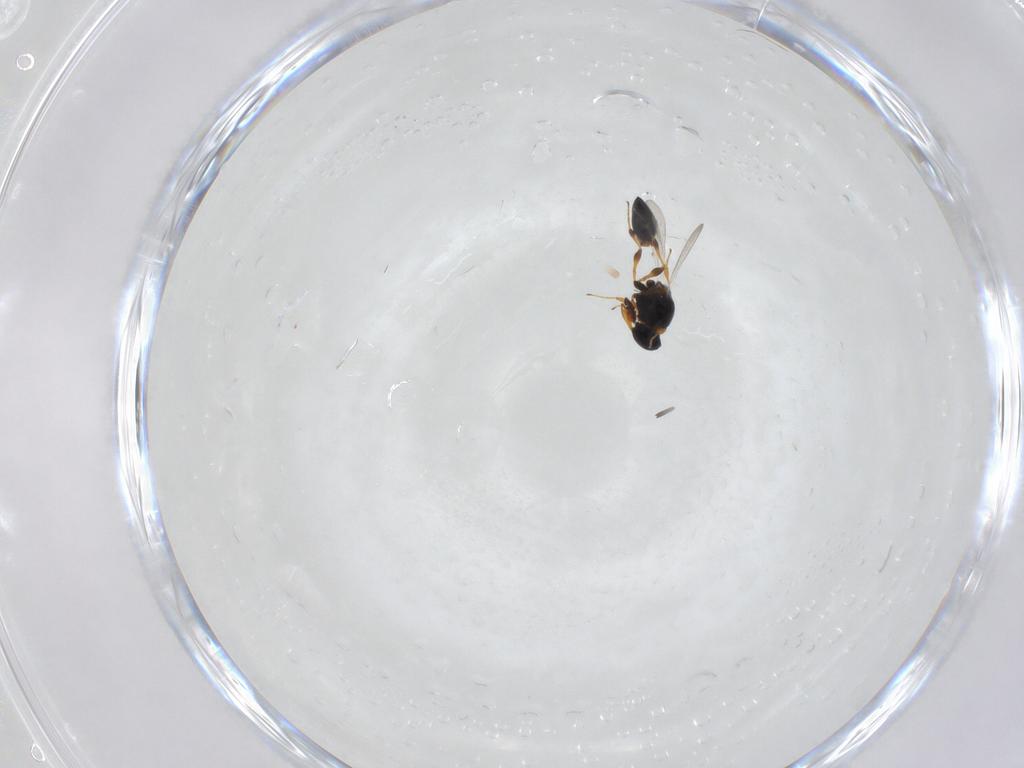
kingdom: Animalia
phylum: Arthropoda
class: Insecta
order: Hymenoptera
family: Platygastridae
